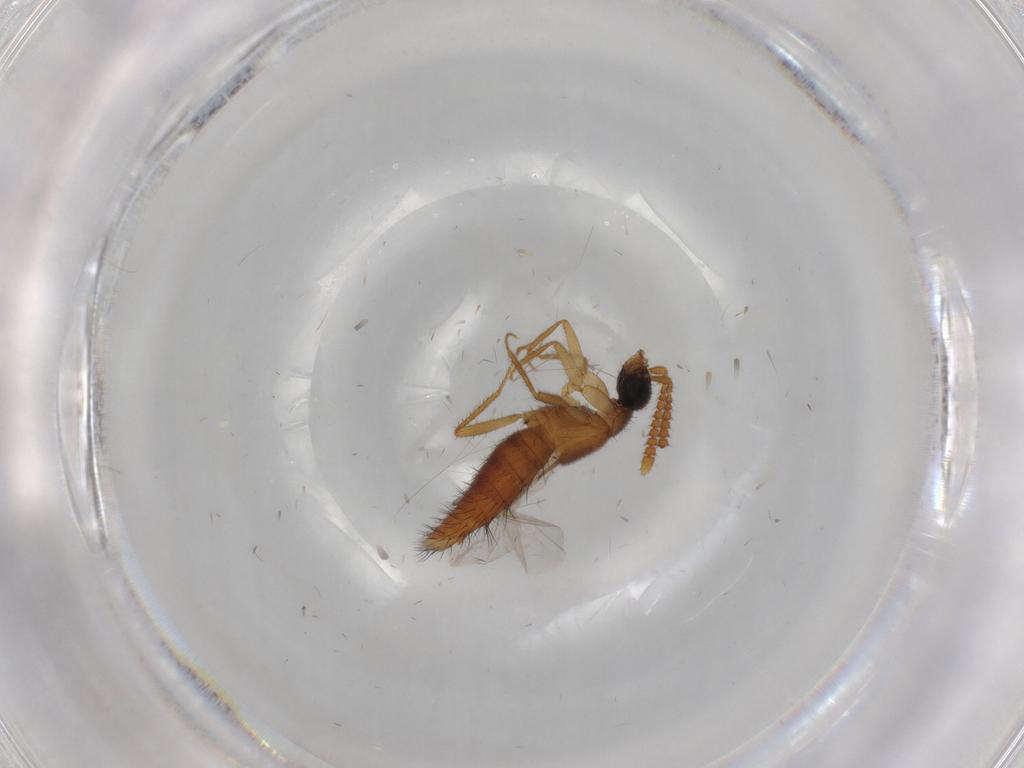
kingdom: Animalia
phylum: Arthropoda
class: Insecta
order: Coleoptera
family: Staphylinidae
